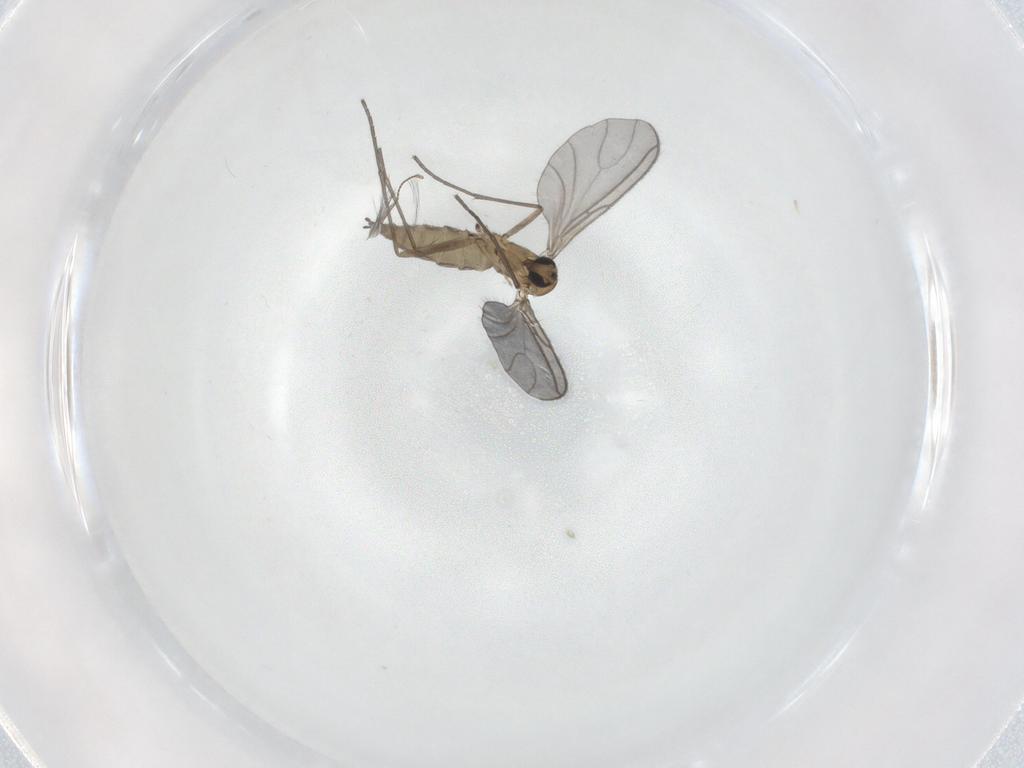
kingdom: Animalia
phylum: Arthropoda
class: Insecta
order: Diptera
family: Sciaridae
